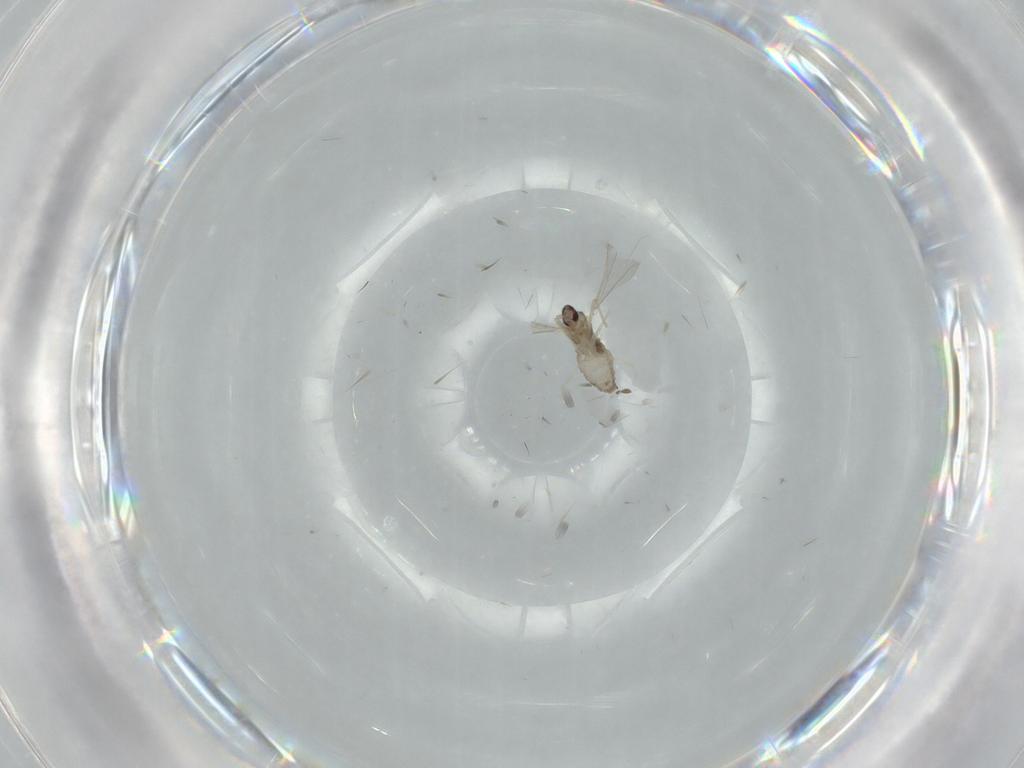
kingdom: Animalia
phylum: Arthropoda
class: Insecta
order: Diptera
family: Cecidomyiidae
